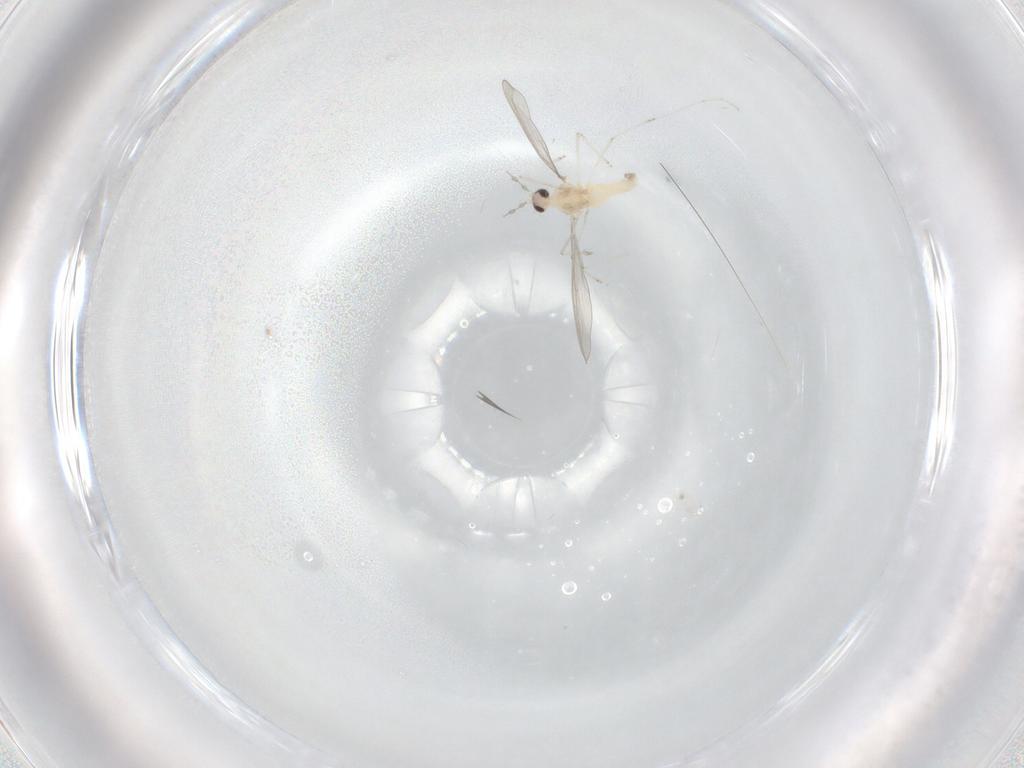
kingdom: Animalia
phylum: Arthropoda
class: Insecta
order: Diptera
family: Cecidomyiidae
